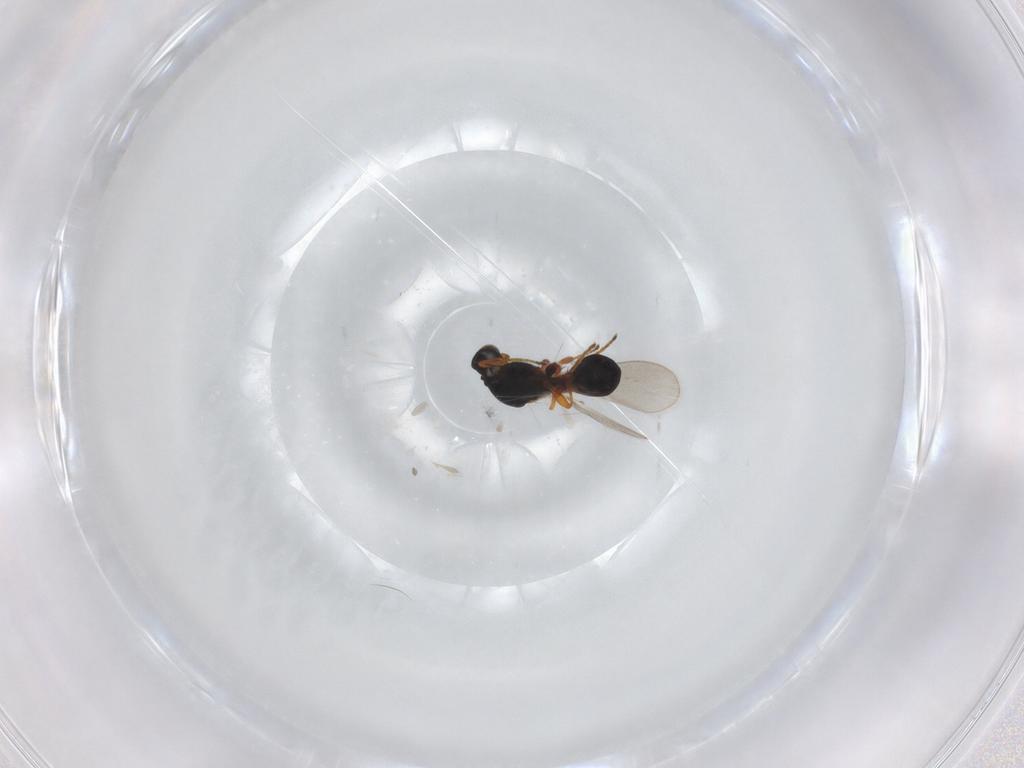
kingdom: Animalia
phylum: Arthropoda
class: Insecta
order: Hymenoptera
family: Platygastridae
